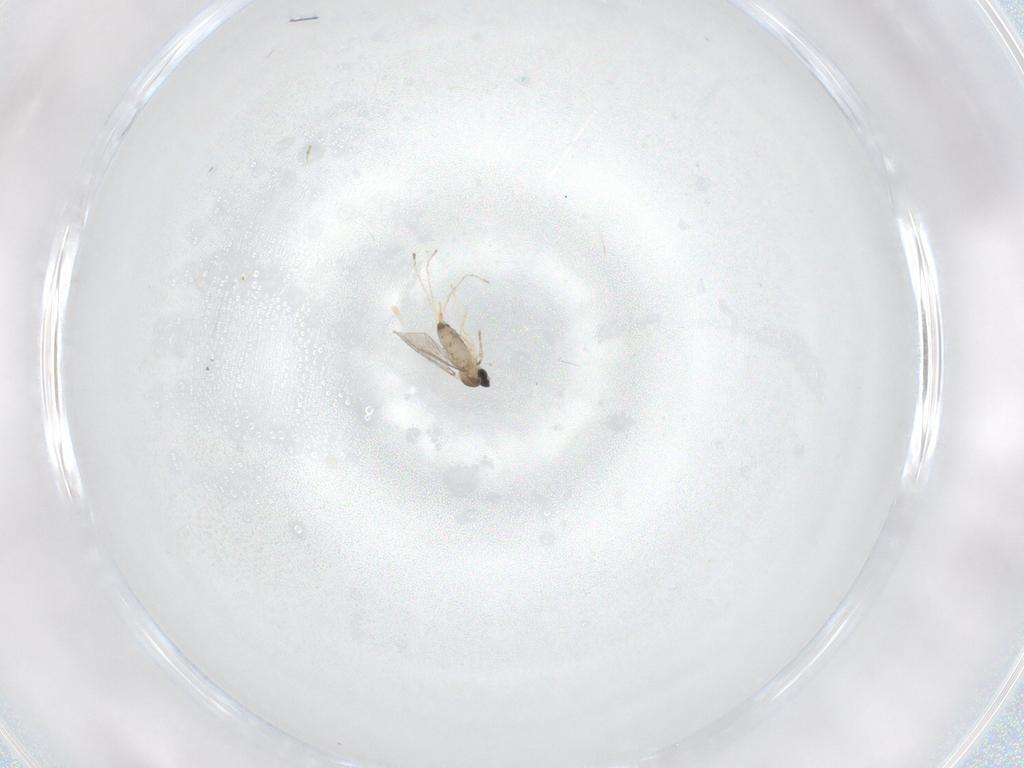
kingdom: Animalia
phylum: Arthropoda
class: Insecta
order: Diptera
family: Cecidomyiidae
